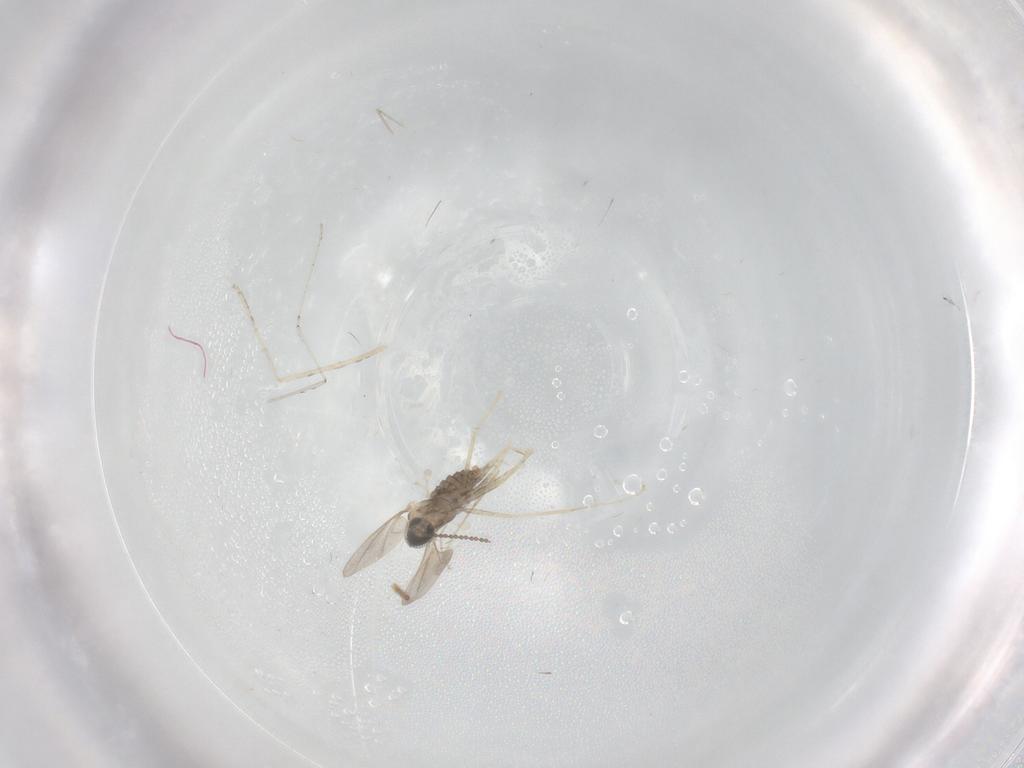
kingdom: Animalia
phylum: Arthropoda
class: Insecta
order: Diptera
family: Cecidomyiidae
